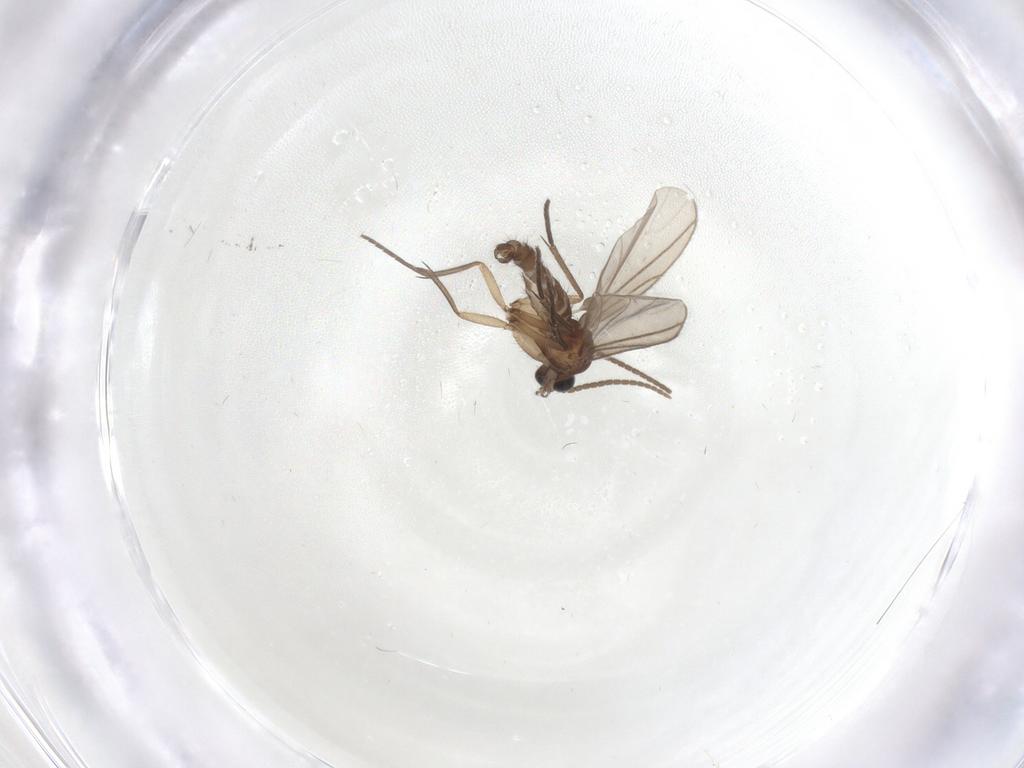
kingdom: Animalia
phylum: Arthropoda
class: Insecta
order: Diptera
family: Sciaridae
